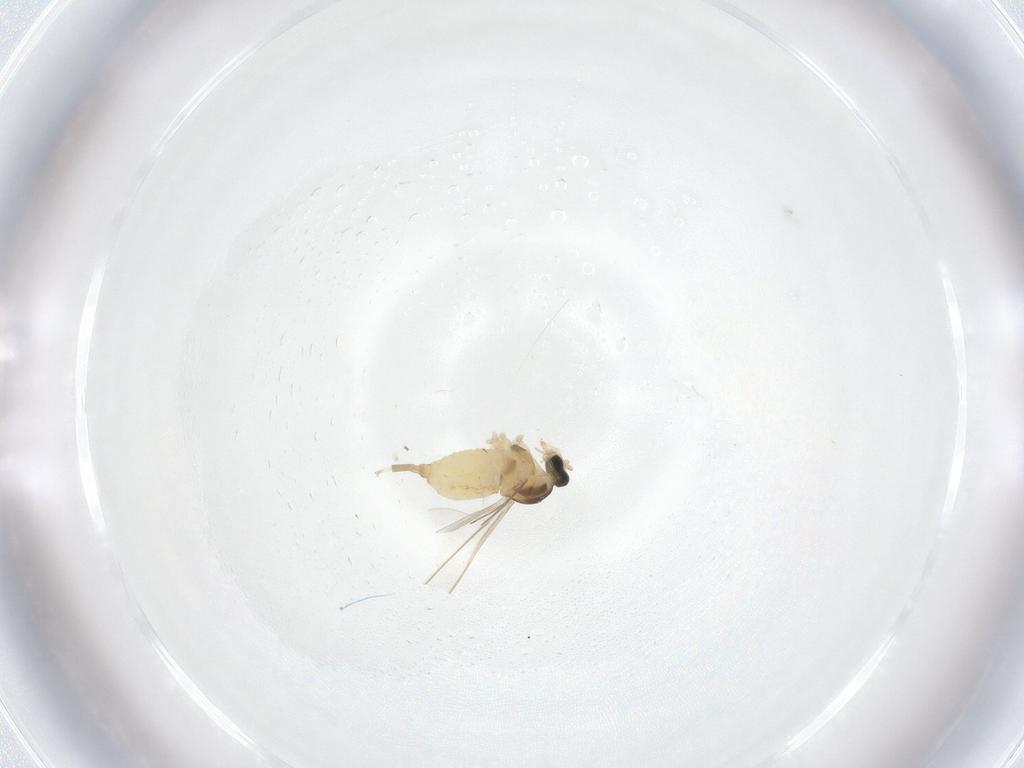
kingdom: Animalia
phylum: Arthropoda
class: Insecta
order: Diptera
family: Cecidomyiidae
